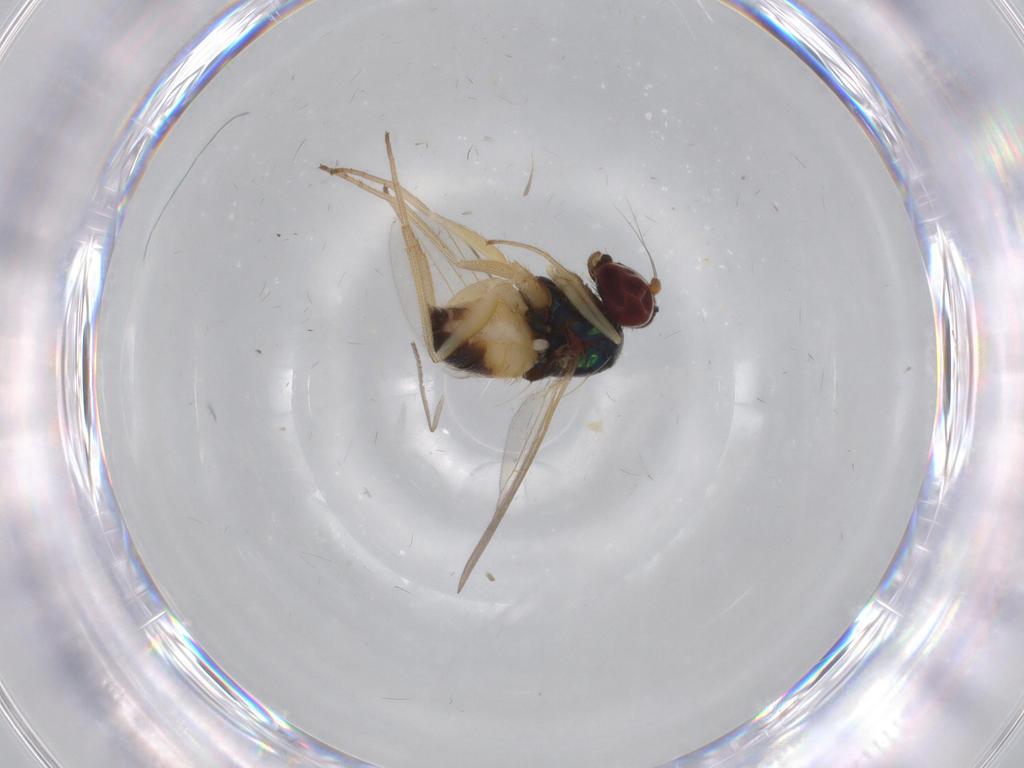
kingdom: Animalia
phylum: Arthropoda
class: Insecta
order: Diptera
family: Dolichopodidae
